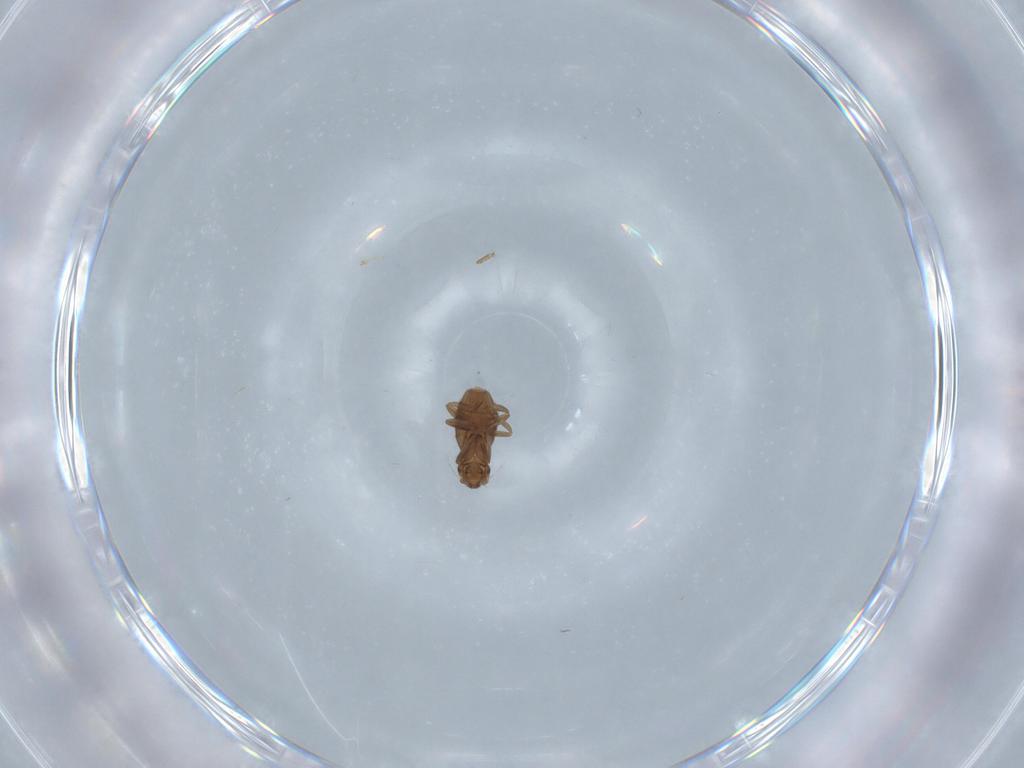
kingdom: Animalia
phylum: Arthropoda
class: Insecta
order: Diptera
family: Cecidomyiidae
